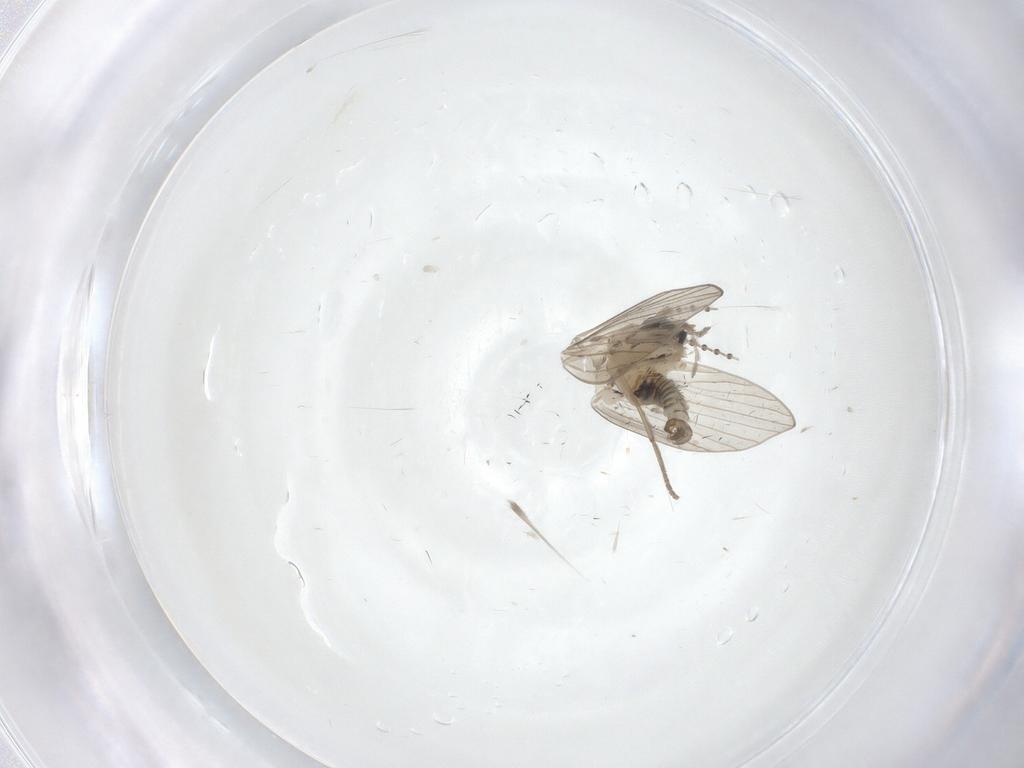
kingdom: Animalia
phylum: Arthropoda
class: Insecta
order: Diptera
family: Psychodidae
